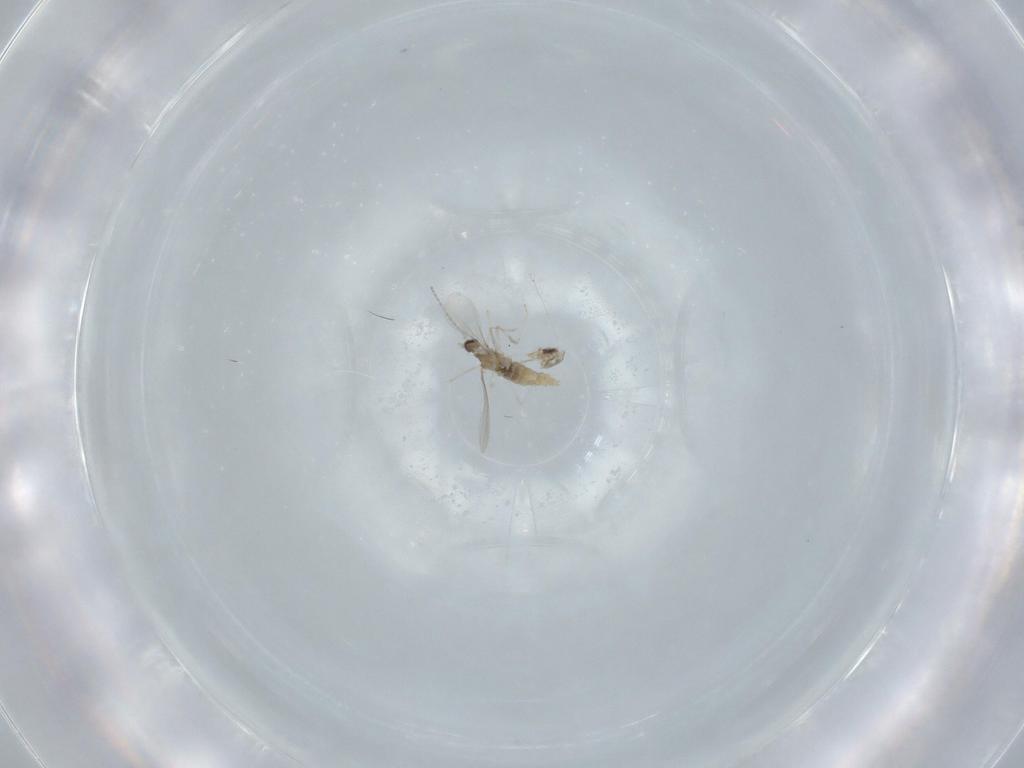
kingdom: Animalia
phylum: Arthropoda
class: Insecta
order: Diptera
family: Cecidomyiidae
